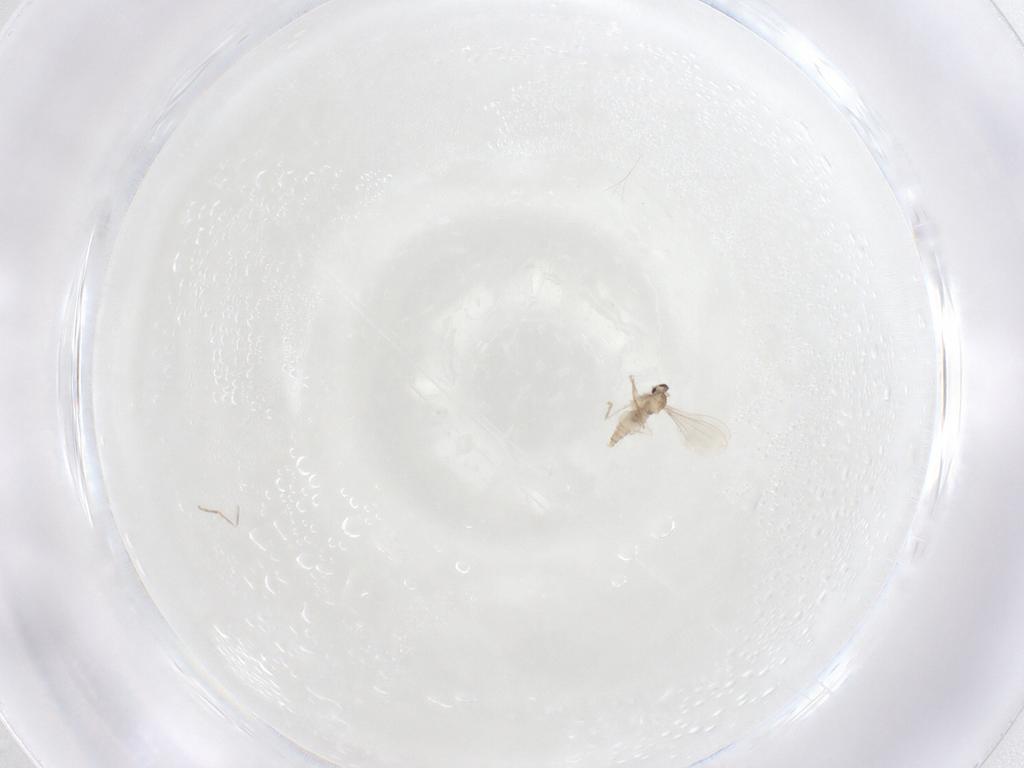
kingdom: Animalia
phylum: Arthropoda
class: Insecta
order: Diptera
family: Cecidomyiidae
